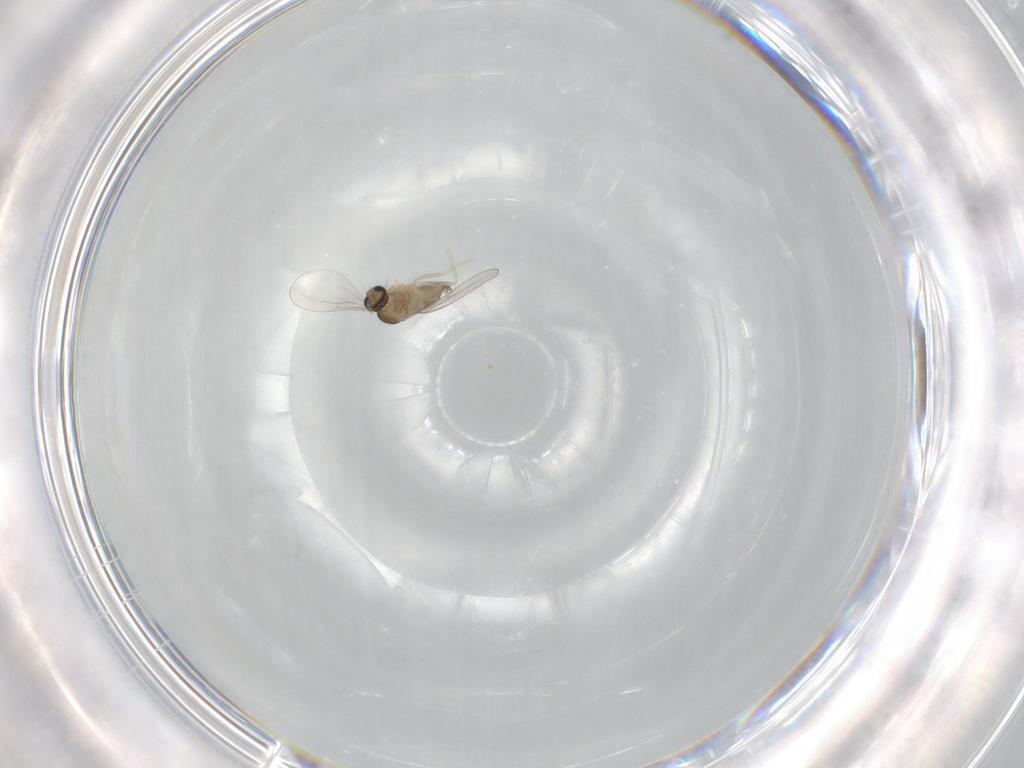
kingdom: Animalia
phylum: Arthropoda
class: Insecta
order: Diptera
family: Cecidomyiidae
